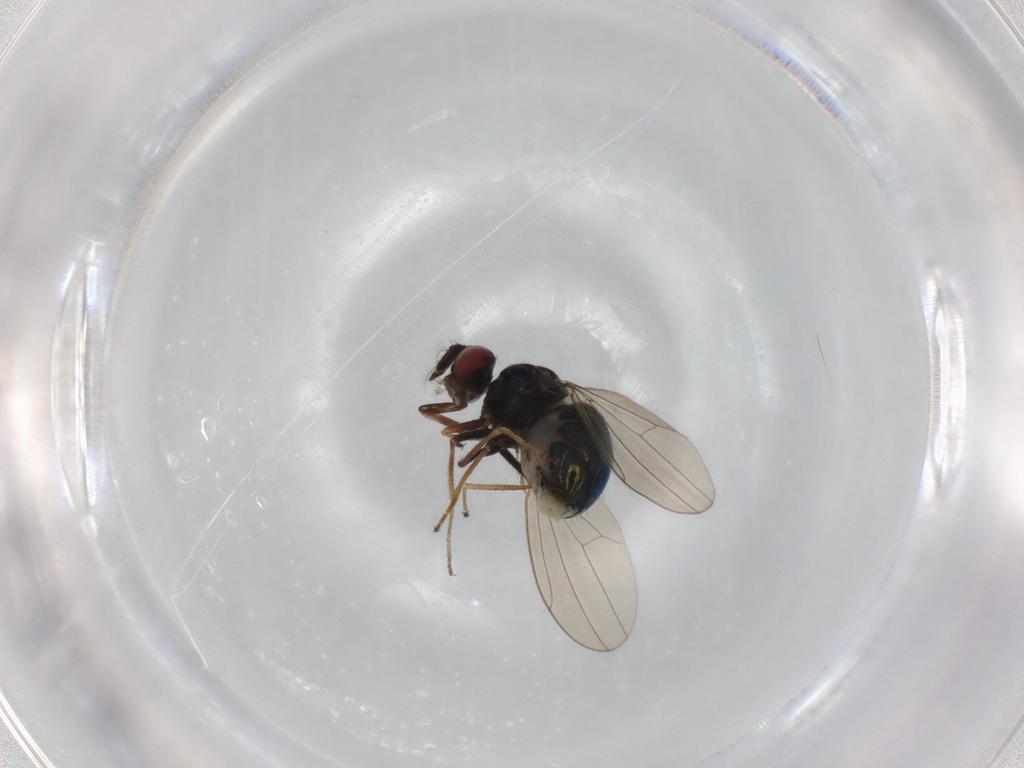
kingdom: Animalia
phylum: Arthropoda
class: Insecta
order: Diptera
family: Ephydridae
